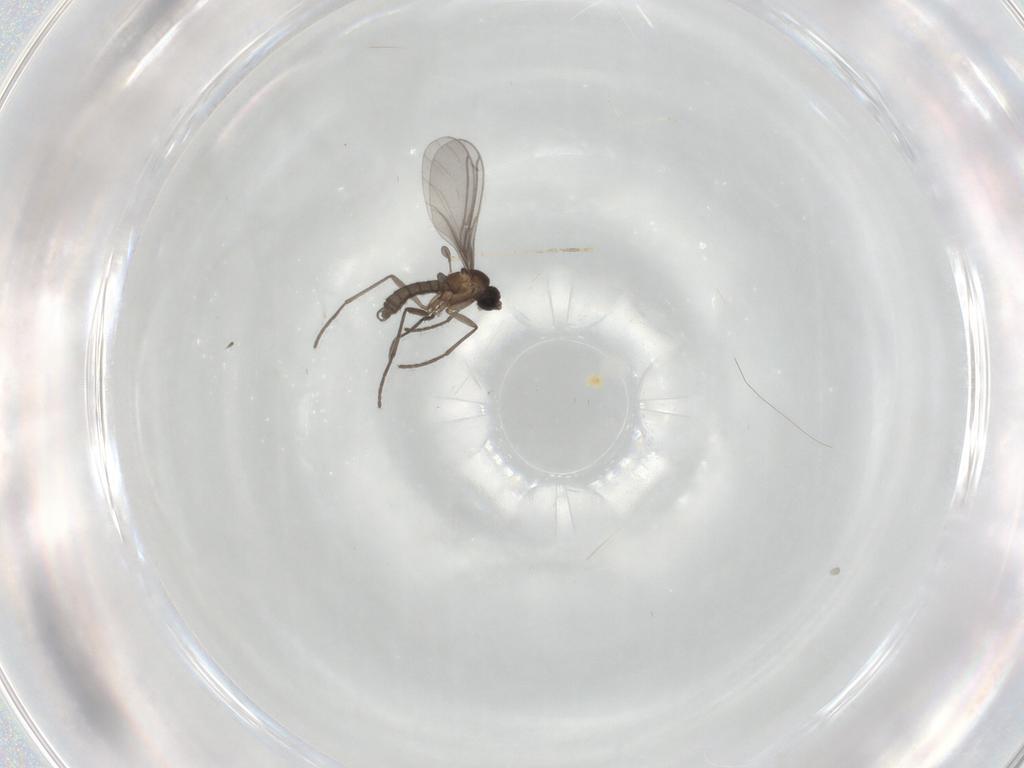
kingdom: Animalia
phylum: Arthropoda
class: Insecta
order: Diptera
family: Sciaridae
